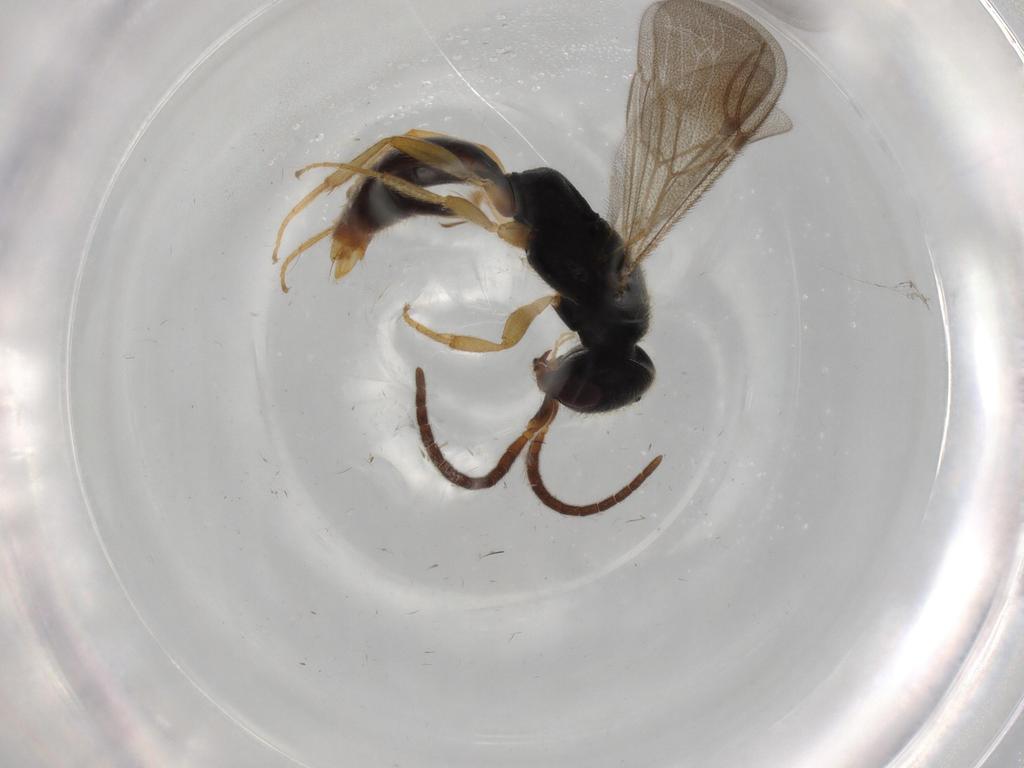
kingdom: Animalia
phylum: Arthropoda
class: Insecta
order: Hymenoptera
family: Bethylidae
